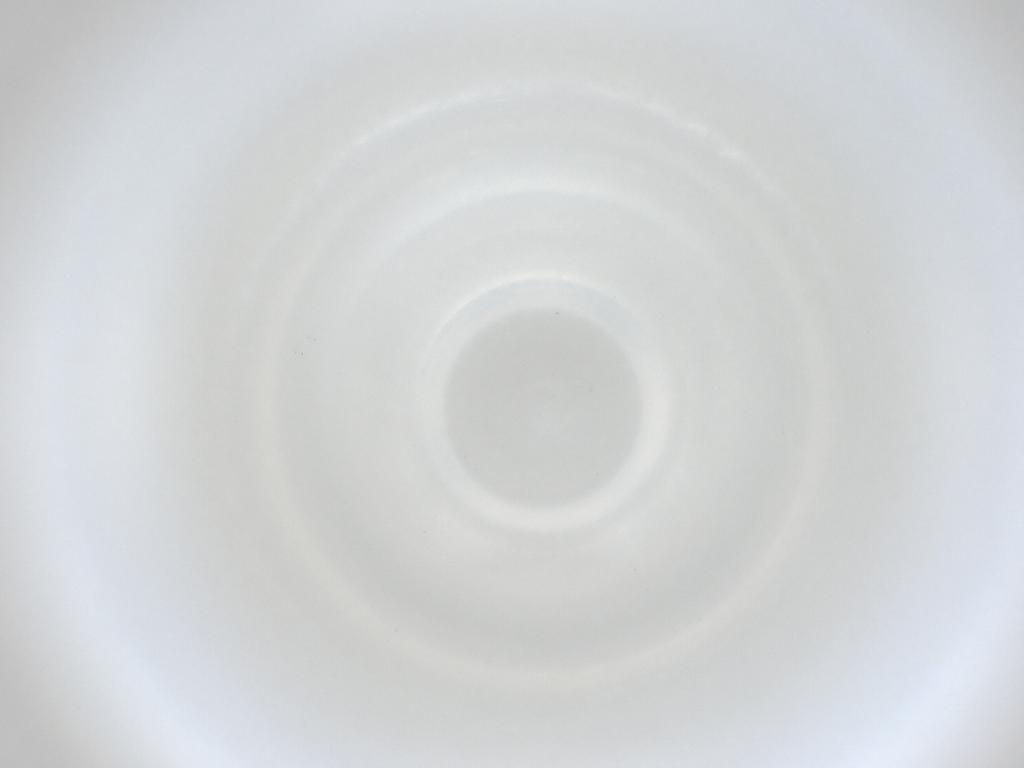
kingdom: Animalia
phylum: Arthropoda
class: Insecta
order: Diptera
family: Cecidomyiidae
